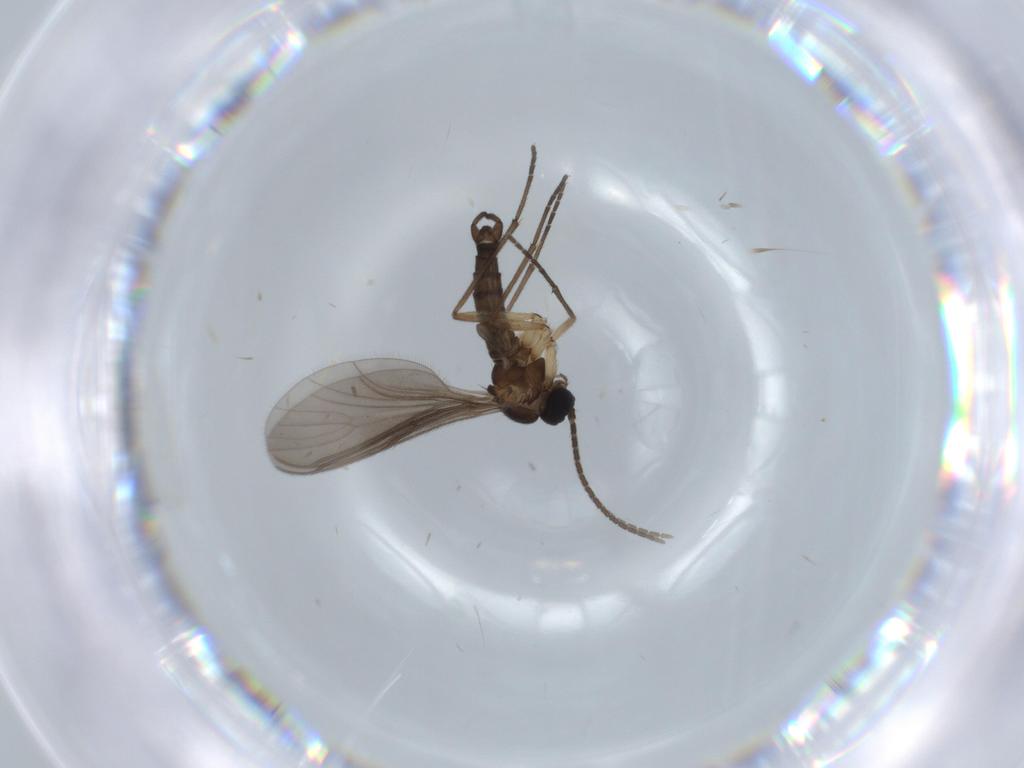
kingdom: Animalia
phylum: Arthropoda
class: Insecta
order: Diptera
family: Sciaridae
